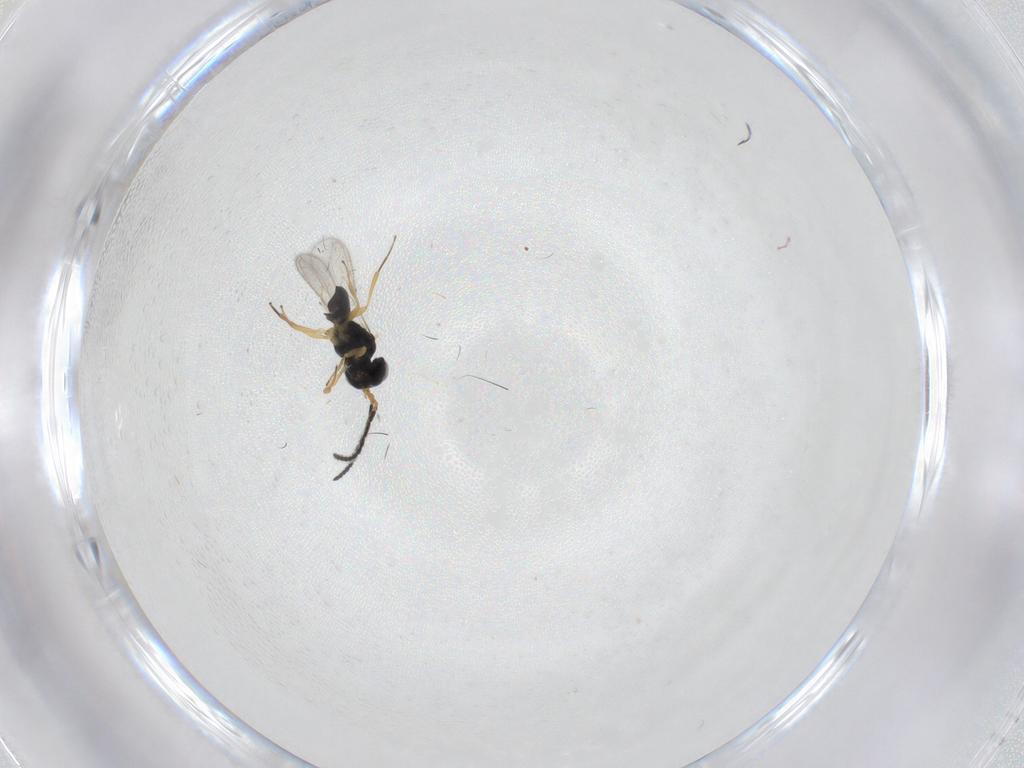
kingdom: Animalia
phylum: Arthropoda
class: Insecta
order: Hymenoptera
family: Scelionidae
